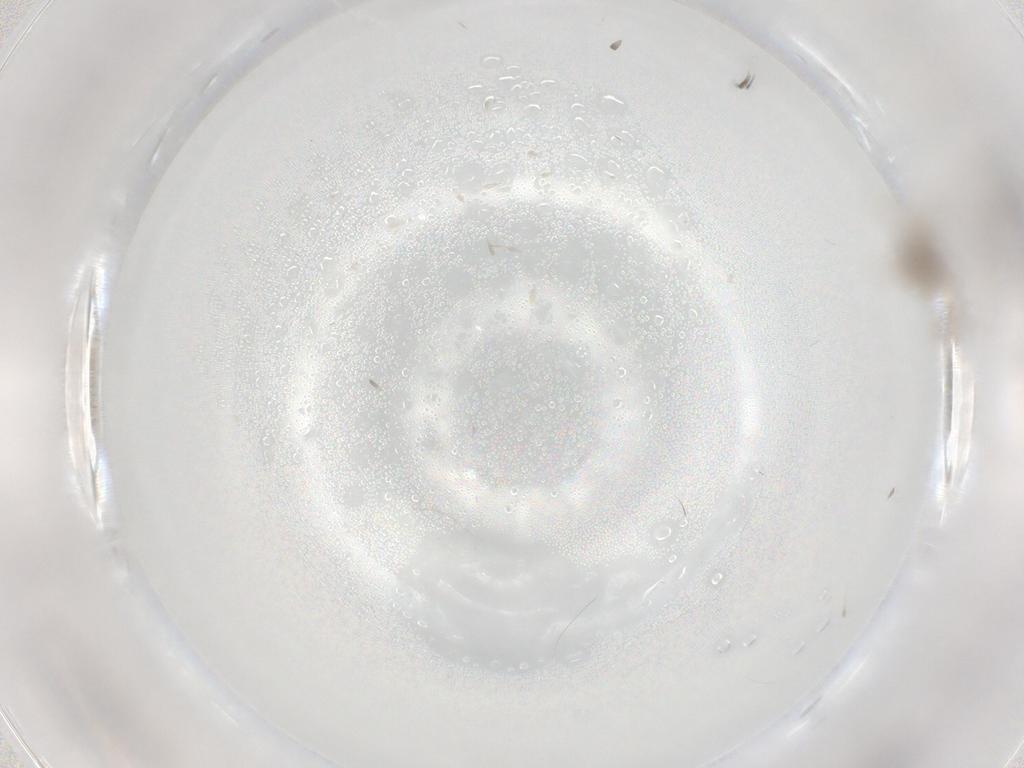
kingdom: Animalia
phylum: Arthropoda
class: Insecta
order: Diptera
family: Chironomidae
